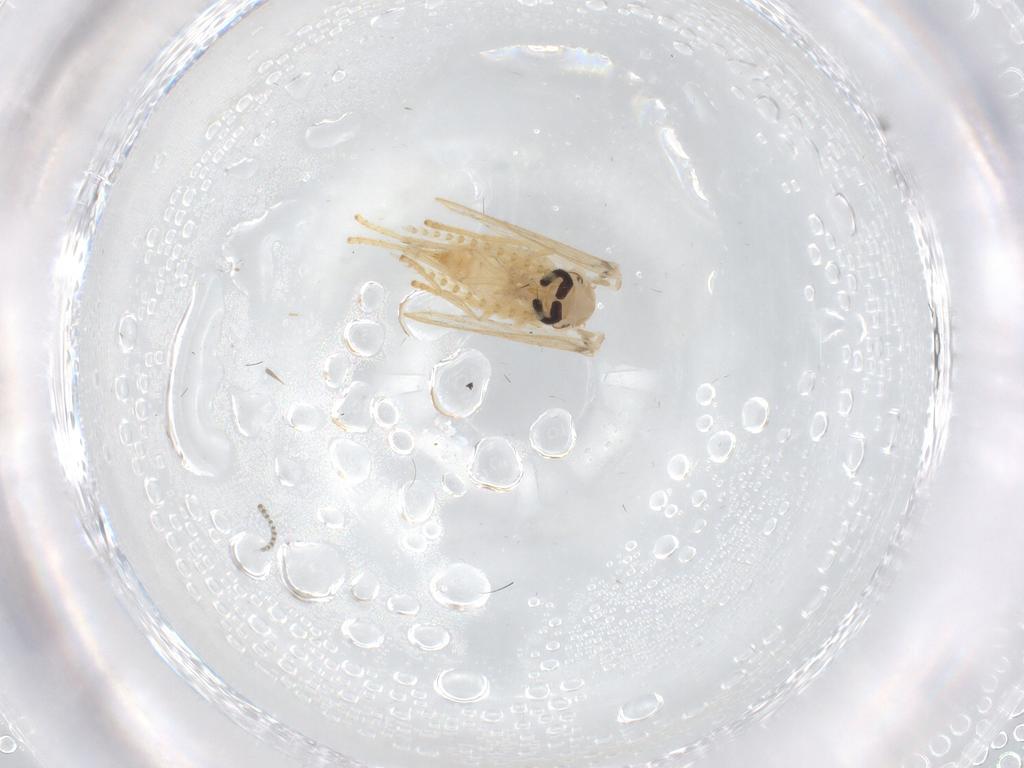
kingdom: Animalia
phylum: Arthropoda
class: Insecta
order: Diptera
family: Psychodidae
